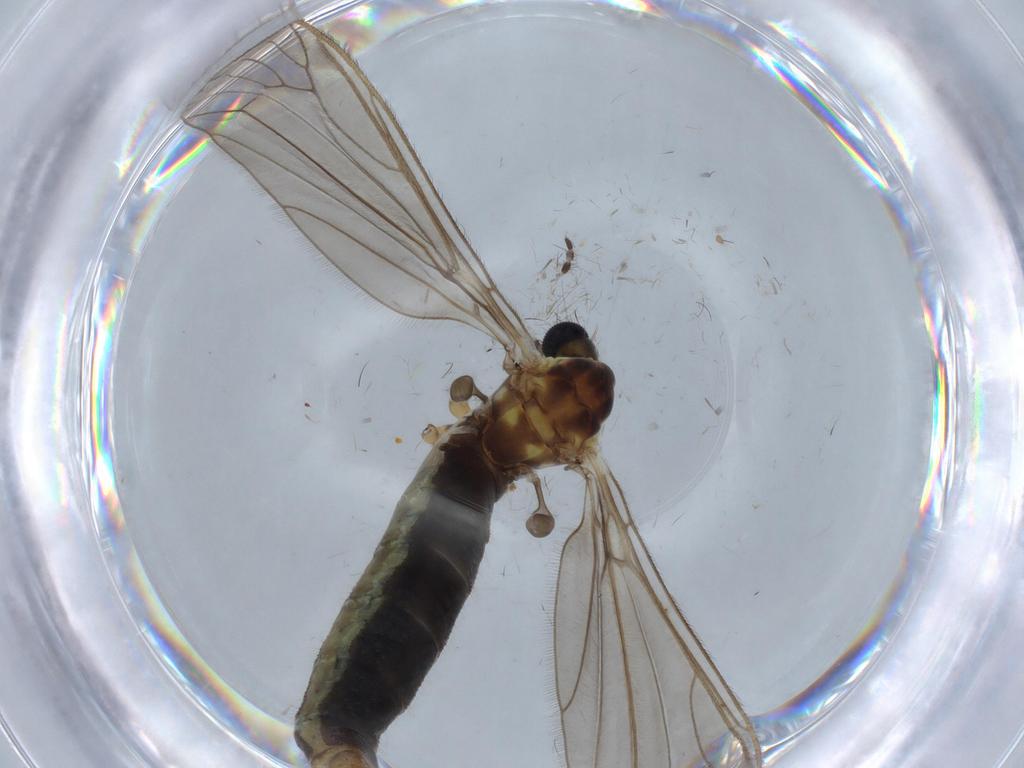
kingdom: Animalia
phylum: Arthropoda
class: Insecta
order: Diptera
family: Limoniidae
